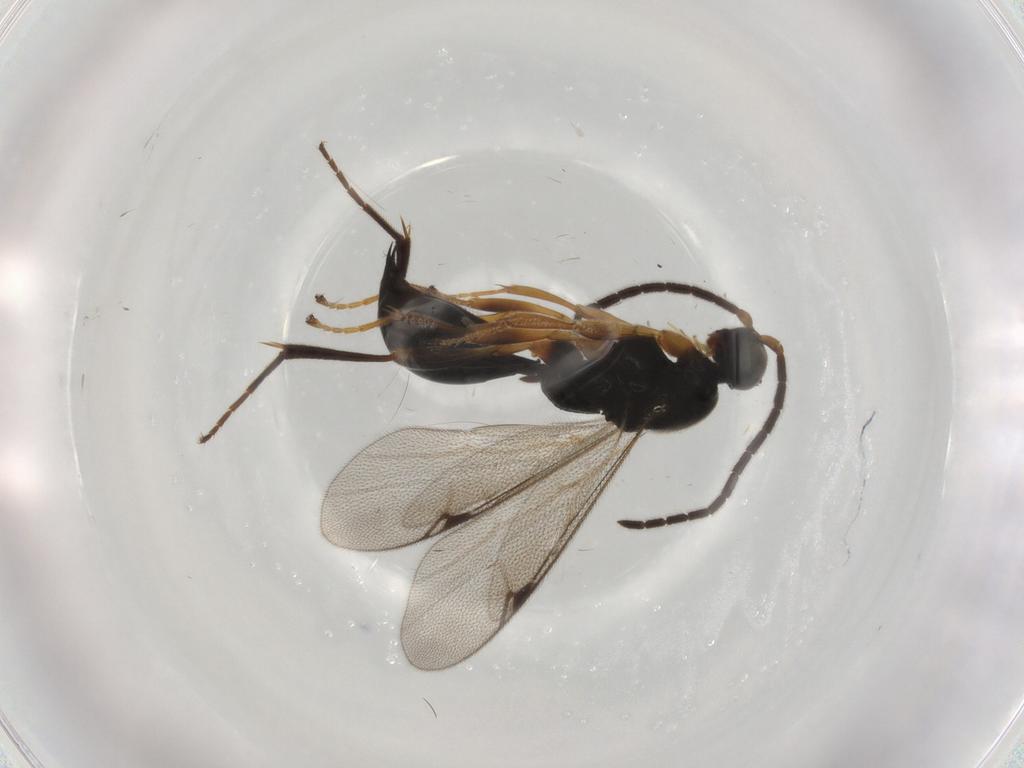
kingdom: Animalia
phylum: Arthropoda
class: Insecta
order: Hymenoptera
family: Proctotrupidae
